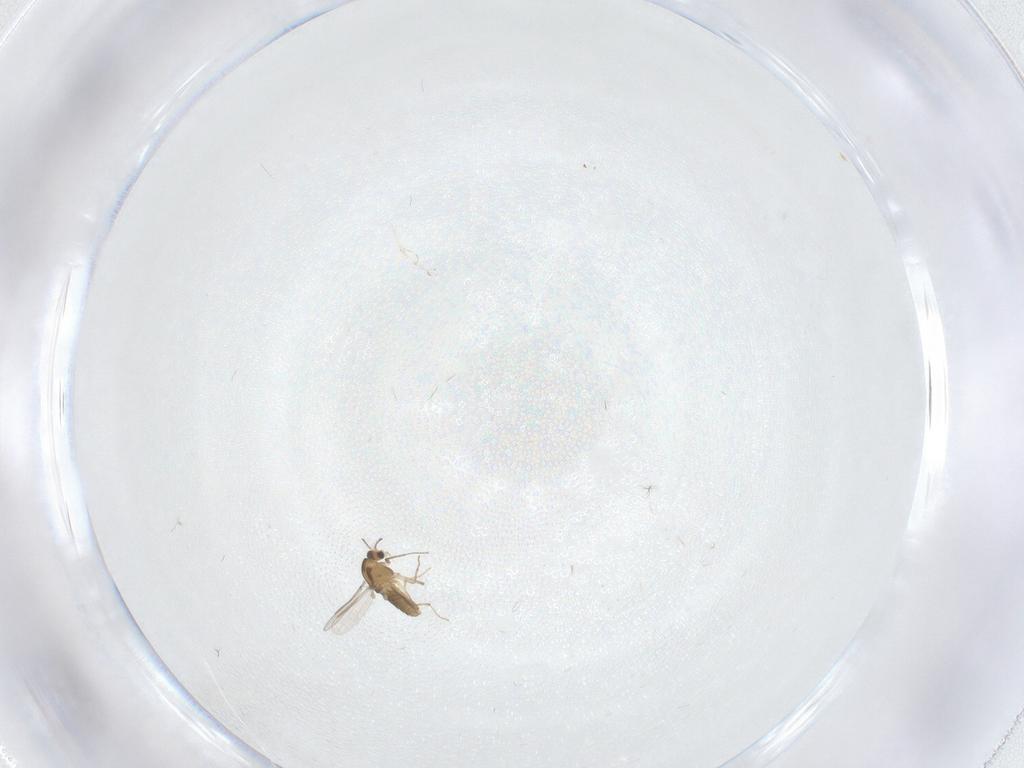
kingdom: Animalia
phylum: Arthropoda
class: Insecta
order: Diptera
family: Chironomidae
